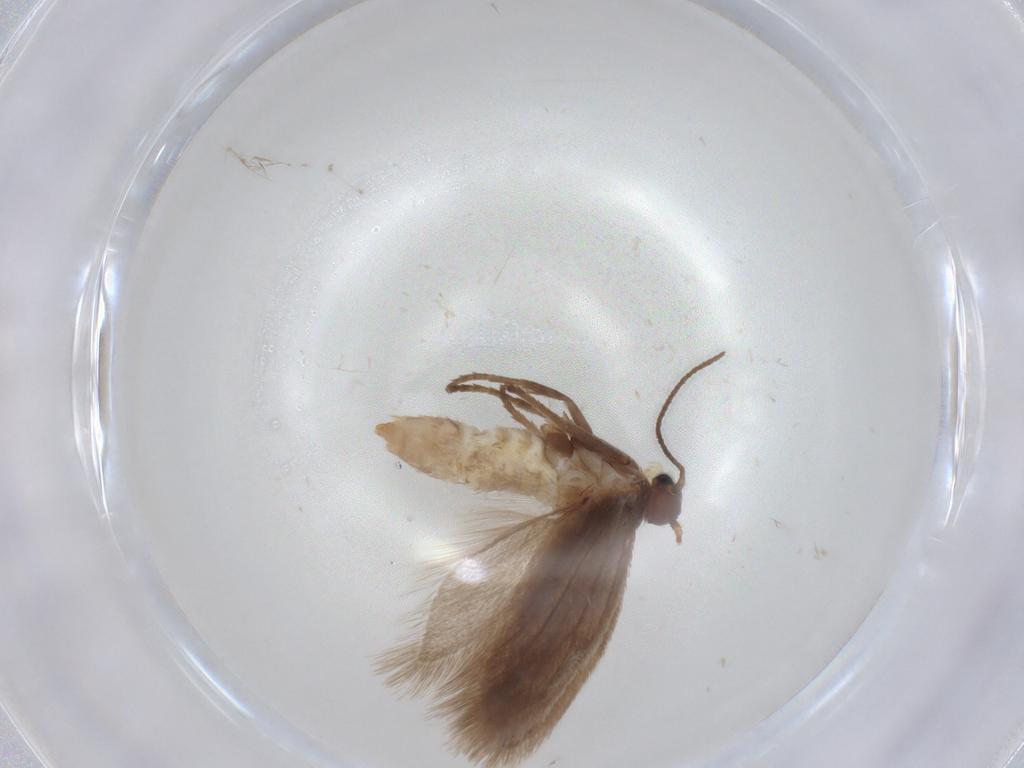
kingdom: Animalia
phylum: Arthropoda
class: Insecta
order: Lepidoptera
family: Limacodidae
